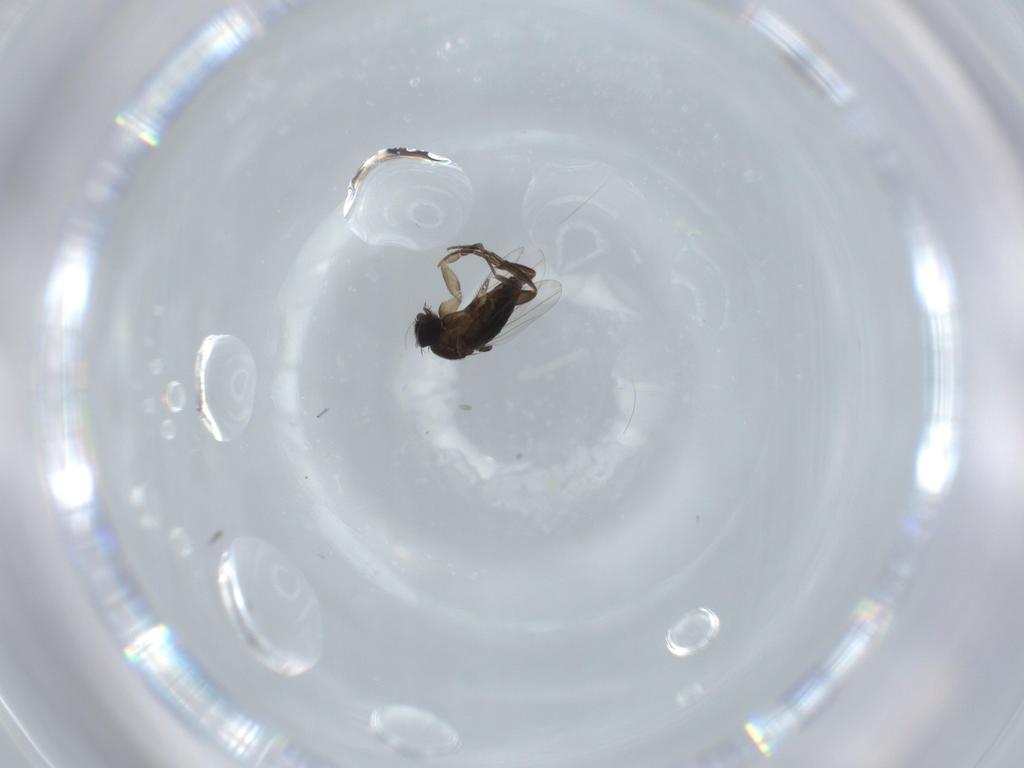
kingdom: Animalia
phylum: Arthropoda
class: Insecta
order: Diptera
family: Phoridae
